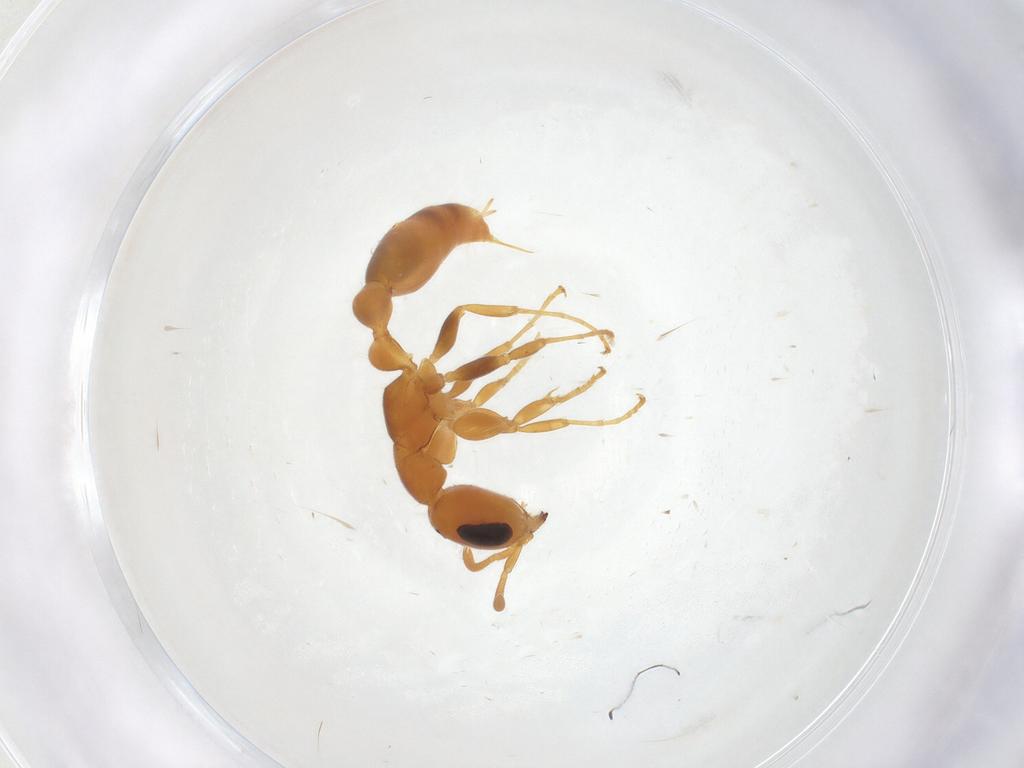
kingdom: Animalia
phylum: Arthropoda
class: Insecta
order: Hymenoptera
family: Formicidae
